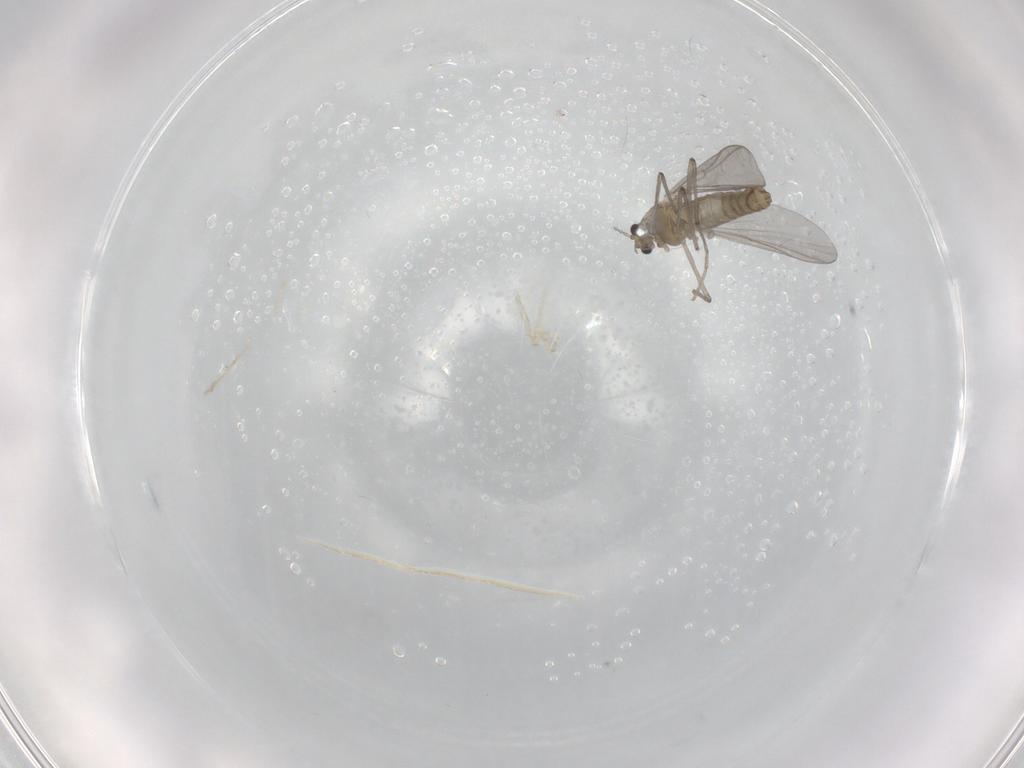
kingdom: Animalia
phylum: Arthropoda
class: Insecta
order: Diptera
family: Chironomidae
